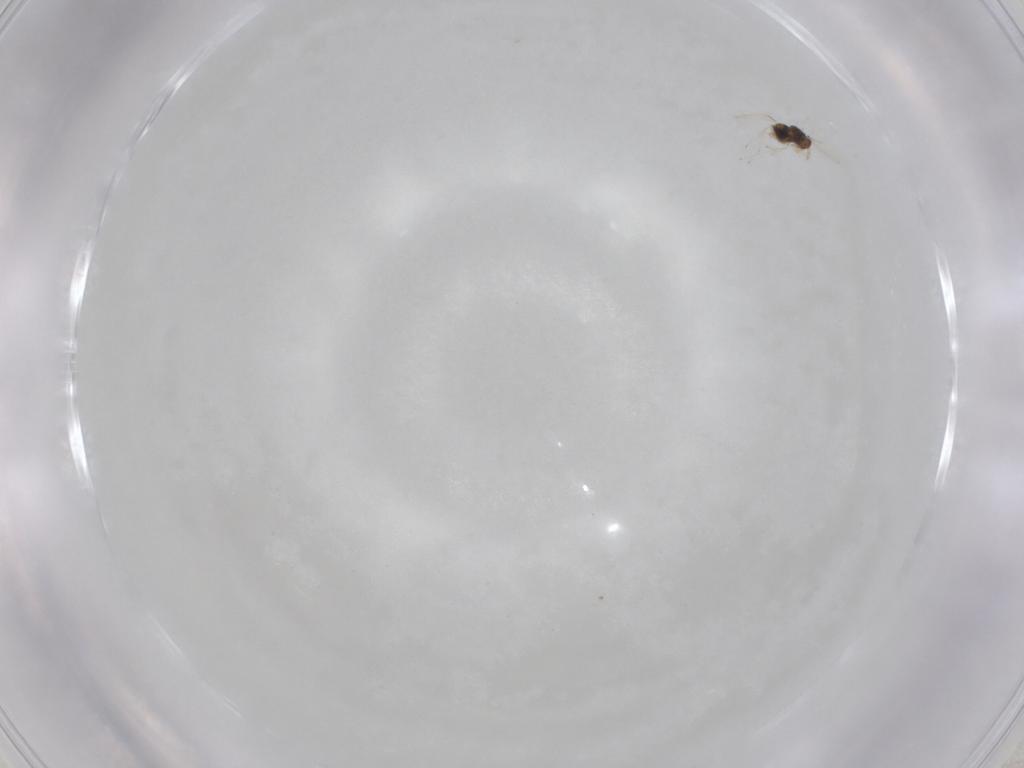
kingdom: Animalia
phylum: Arthropoda
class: Insecta
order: Hymenoptera
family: Trichogrammatidae
